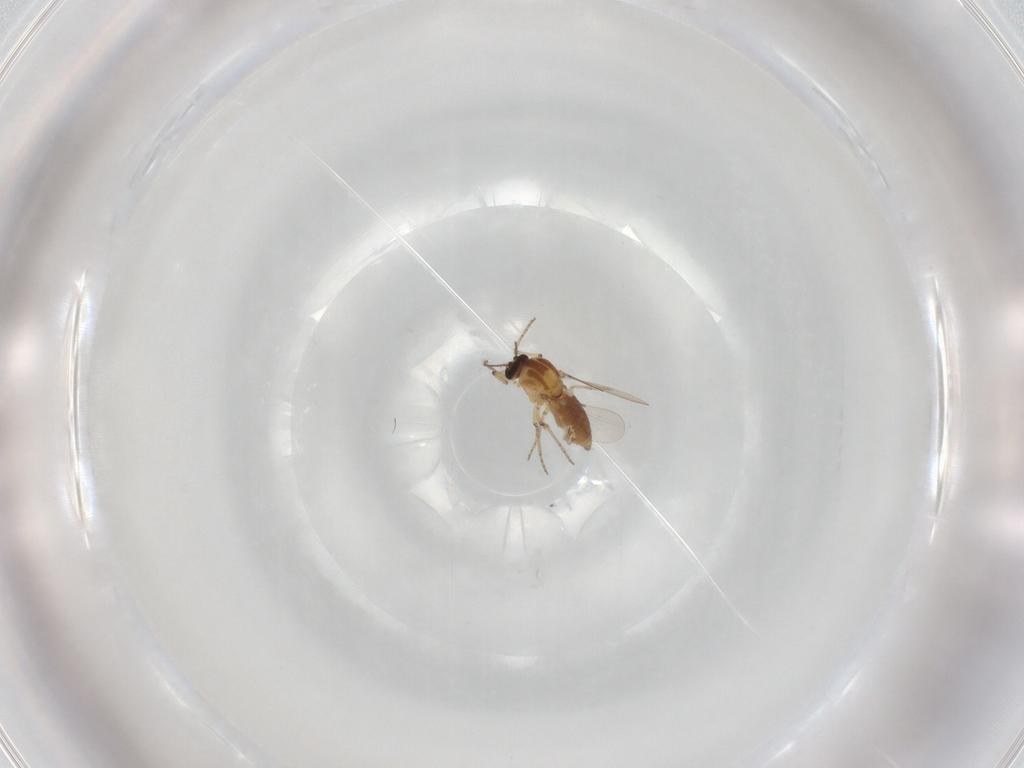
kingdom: Animalia
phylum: Arthropoda
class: Insecta
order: Diptera
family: Ceratopogonidae
